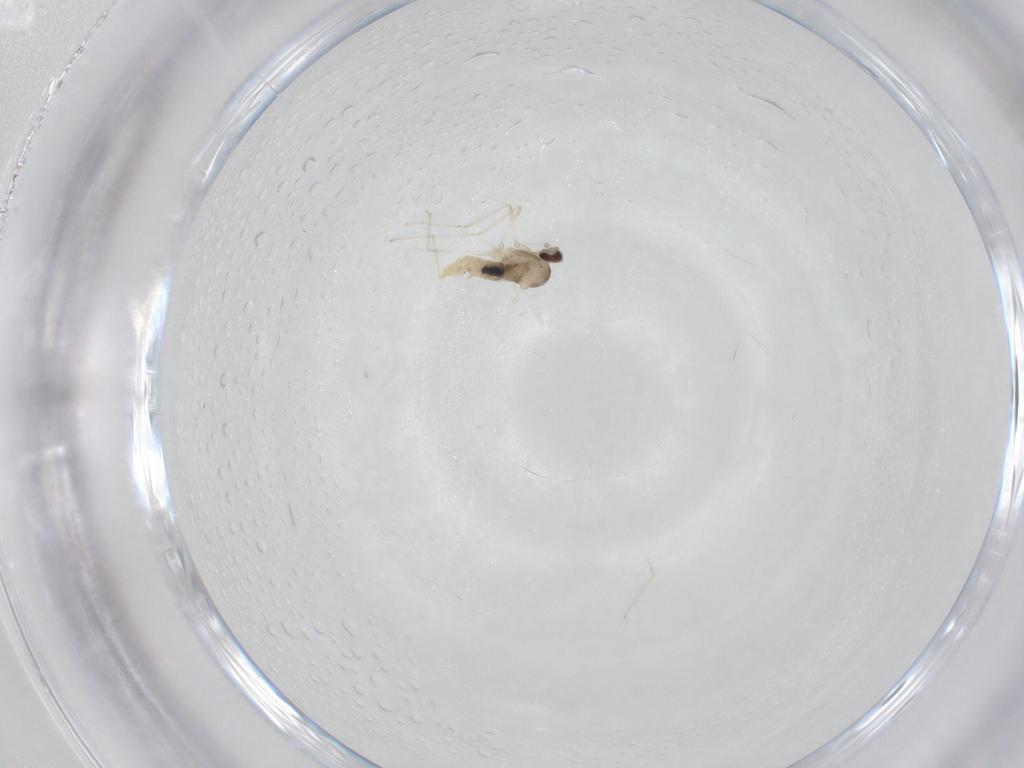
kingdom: Animalia
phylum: Arthropoda
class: Insecta
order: Diptera
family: Cecidomyiidae
